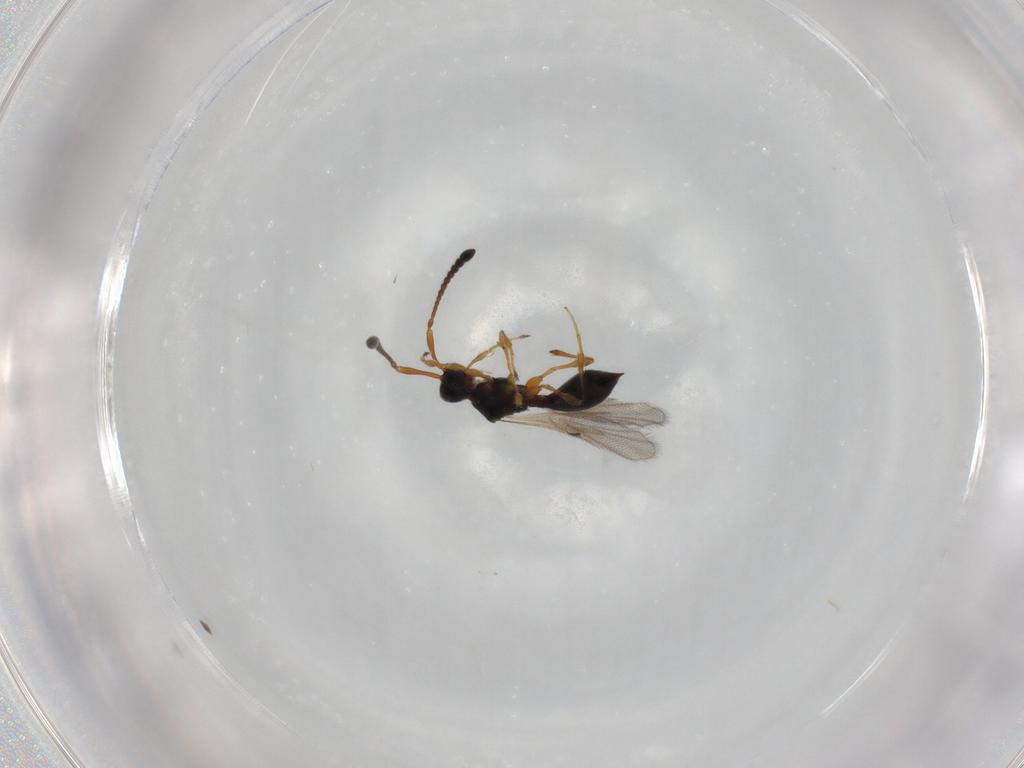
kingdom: Animalia
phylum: Arthropoda
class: Insecta
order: Hymenoptera
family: Diapriidae
